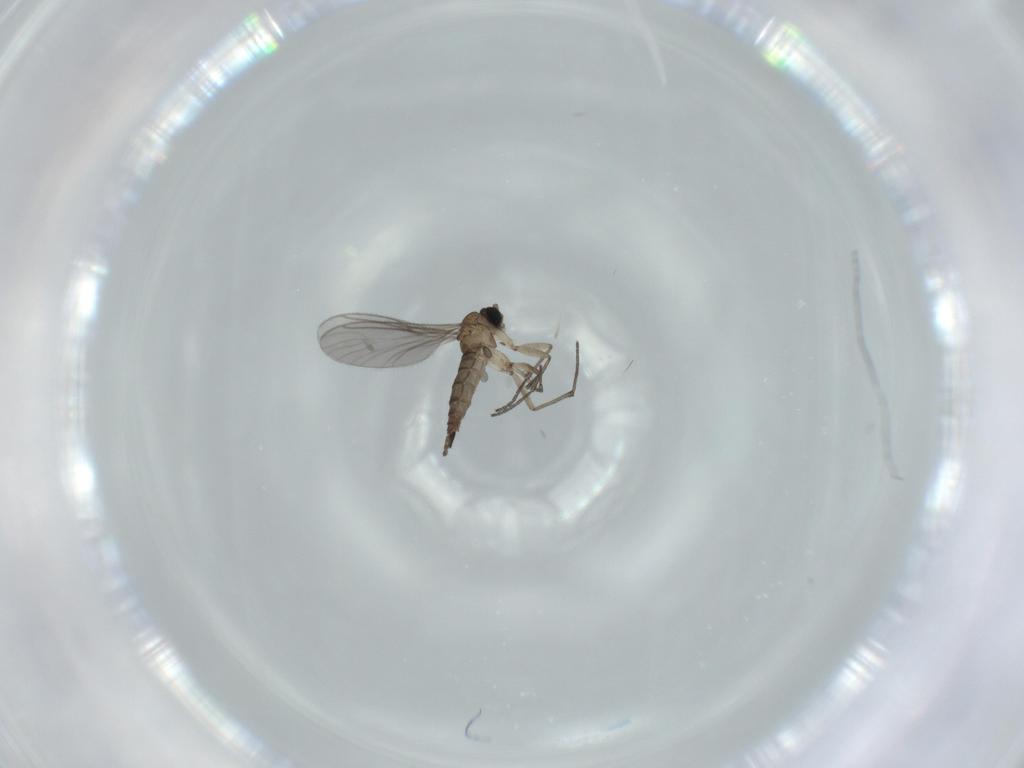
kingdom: Animalia
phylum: Arthropoda
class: Insecta
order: Diptera
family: Sciaridae
